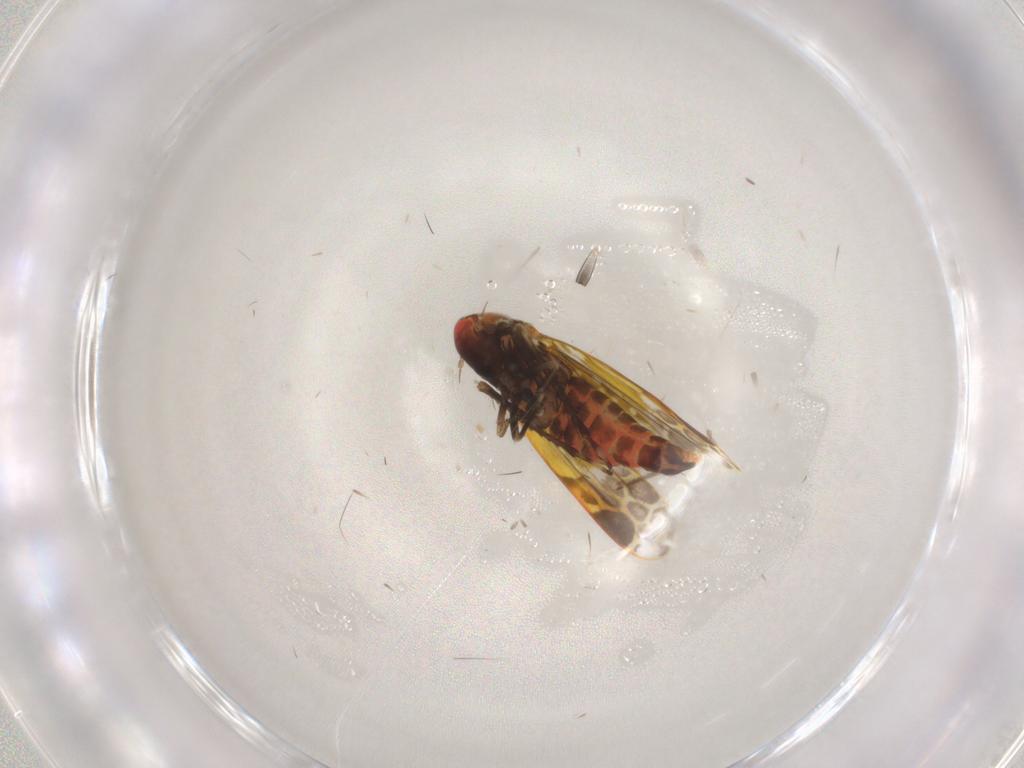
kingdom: Animalia
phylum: Arthropoda
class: Insecta
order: Hemiptera
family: Cicadellidae
